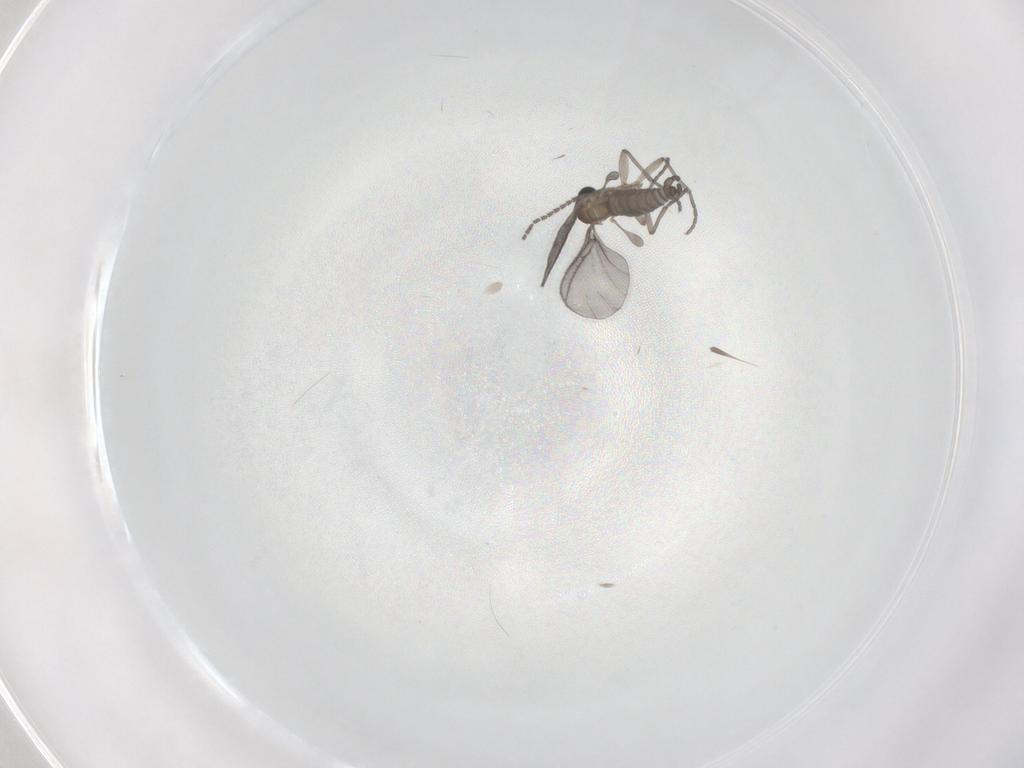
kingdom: Animalia
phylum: Arthropoda
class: Insecta
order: Diptera
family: Sciaridae
